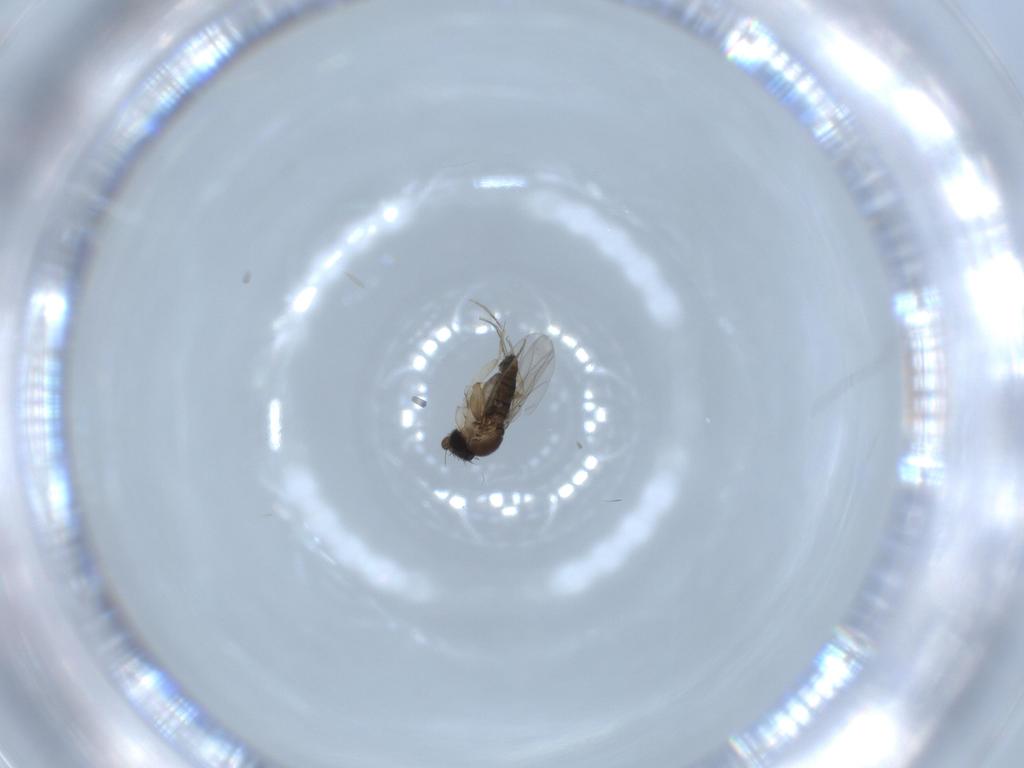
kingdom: Animalia
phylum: Arthropoda
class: Insecta
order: Diptera
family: Phoridae
